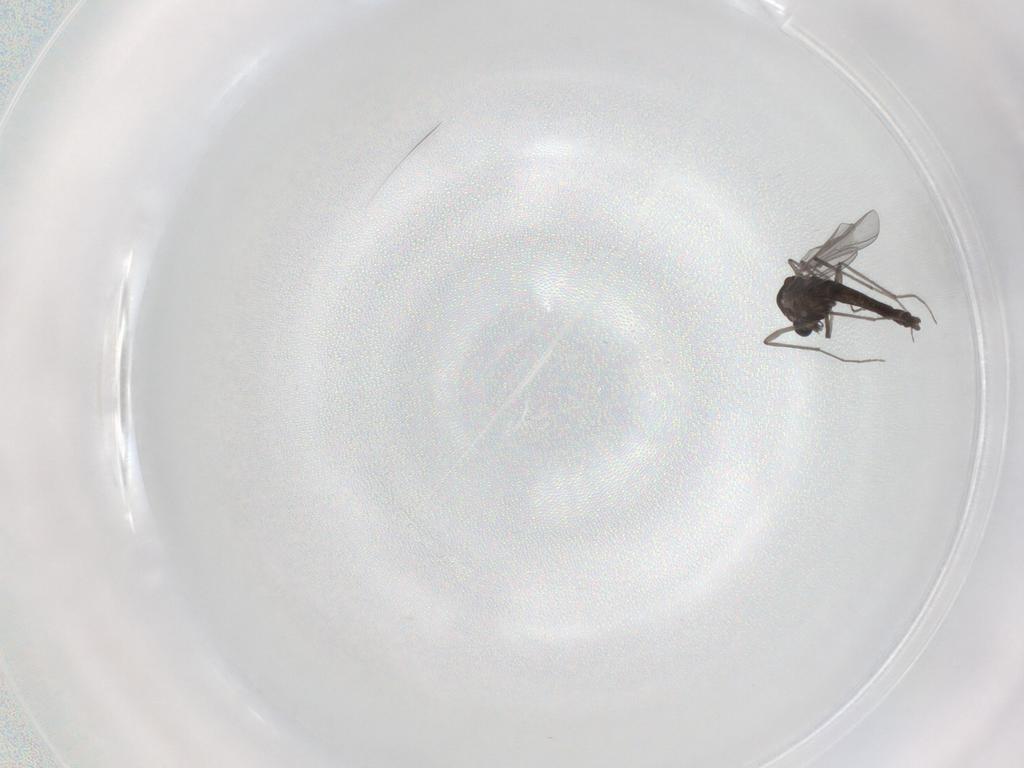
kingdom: Animalia
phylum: Arthropoda
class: Insecta
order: Diptera
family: Chironomidae
